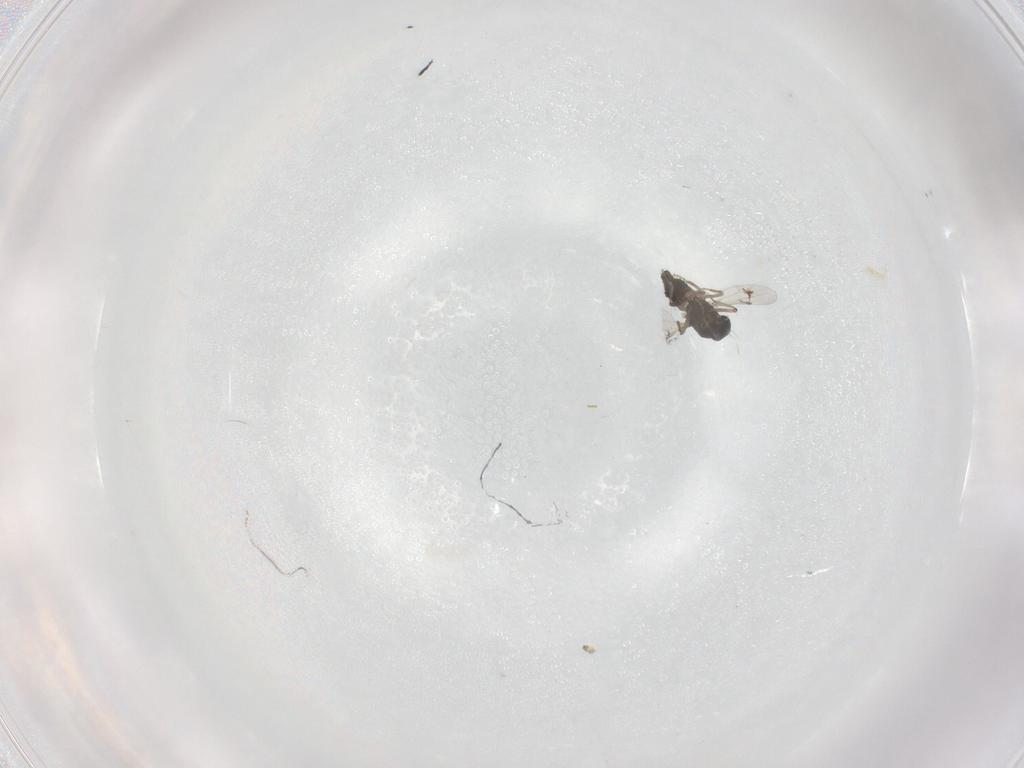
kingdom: Animalia
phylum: Arthropoda
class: Insecta
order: Diptera
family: Ceratopogonidae
